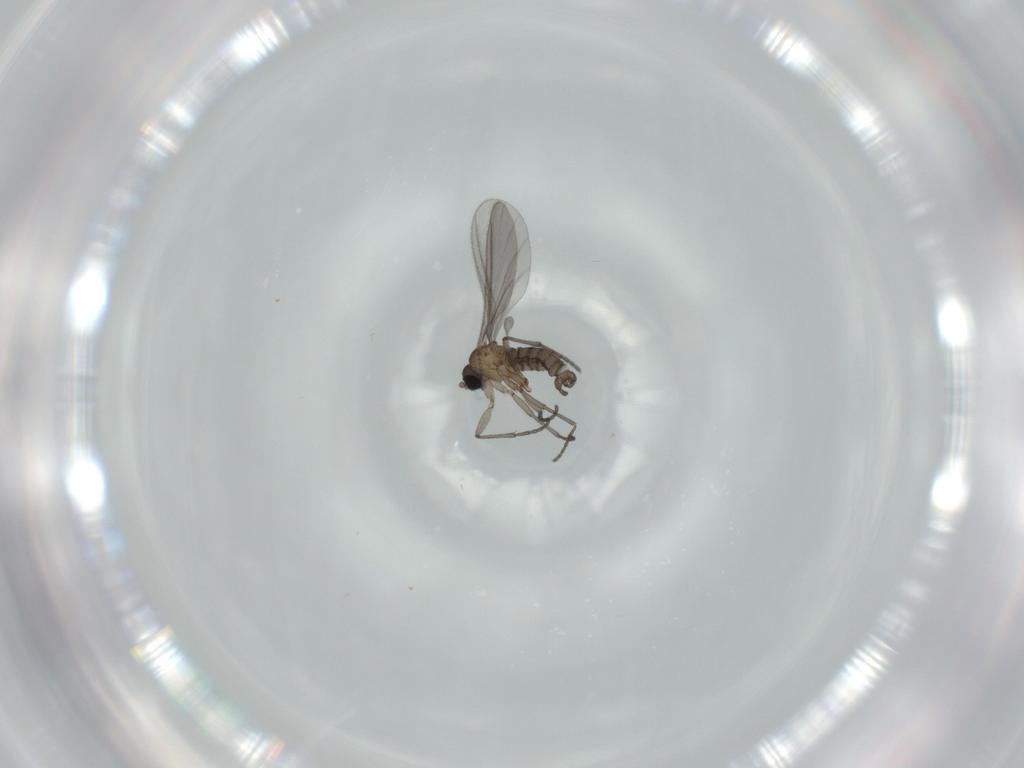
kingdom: Animalia
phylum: Arthropoda
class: Insecta
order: Diptera
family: Sciaridae
